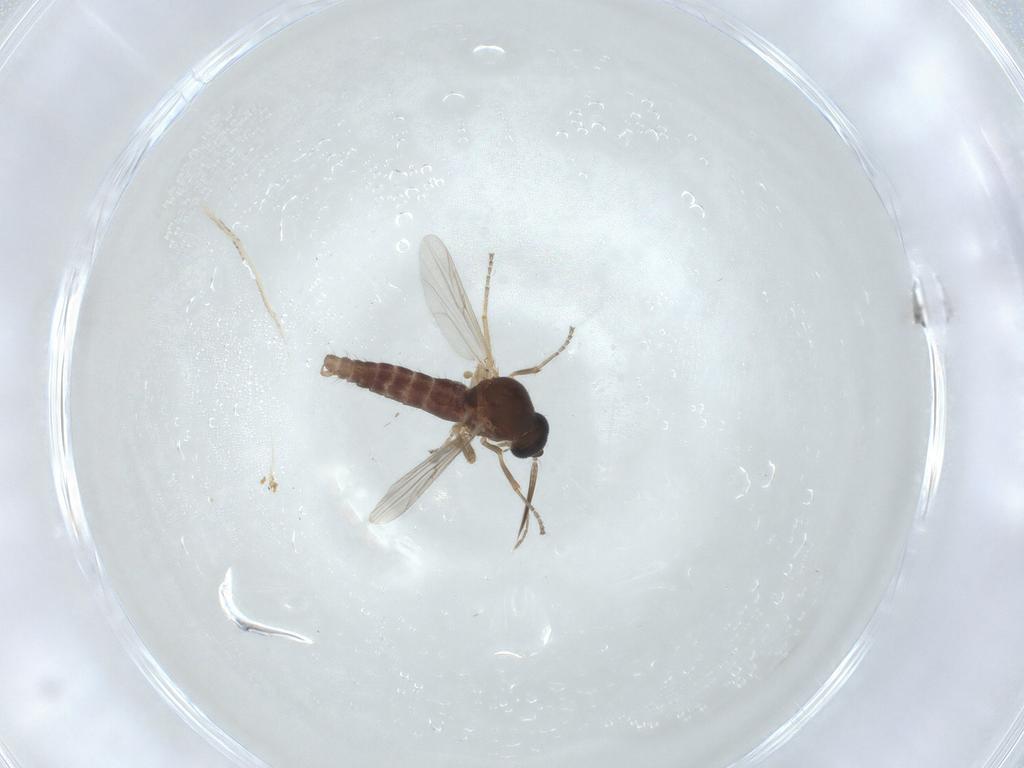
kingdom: Animalia
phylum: Arthropoda
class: Insecta
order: Diptera
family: Ceratopogonidae
